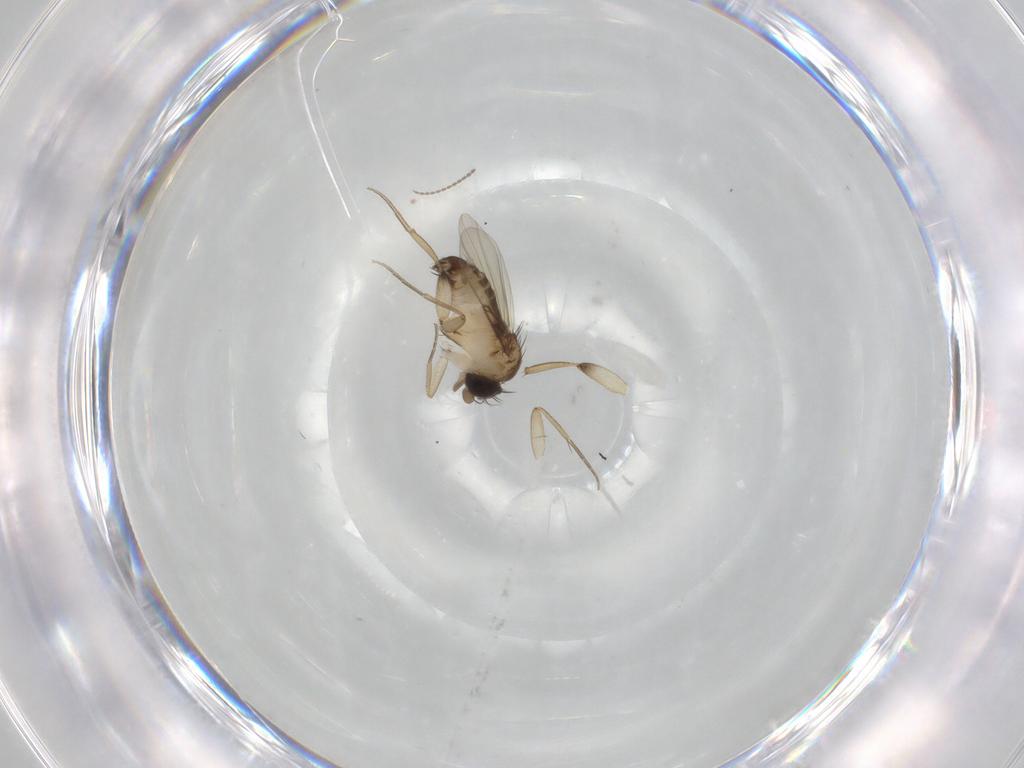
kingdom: Animalia
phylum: Arthropoda
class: Insecta
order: Diptera
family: Phoridae
